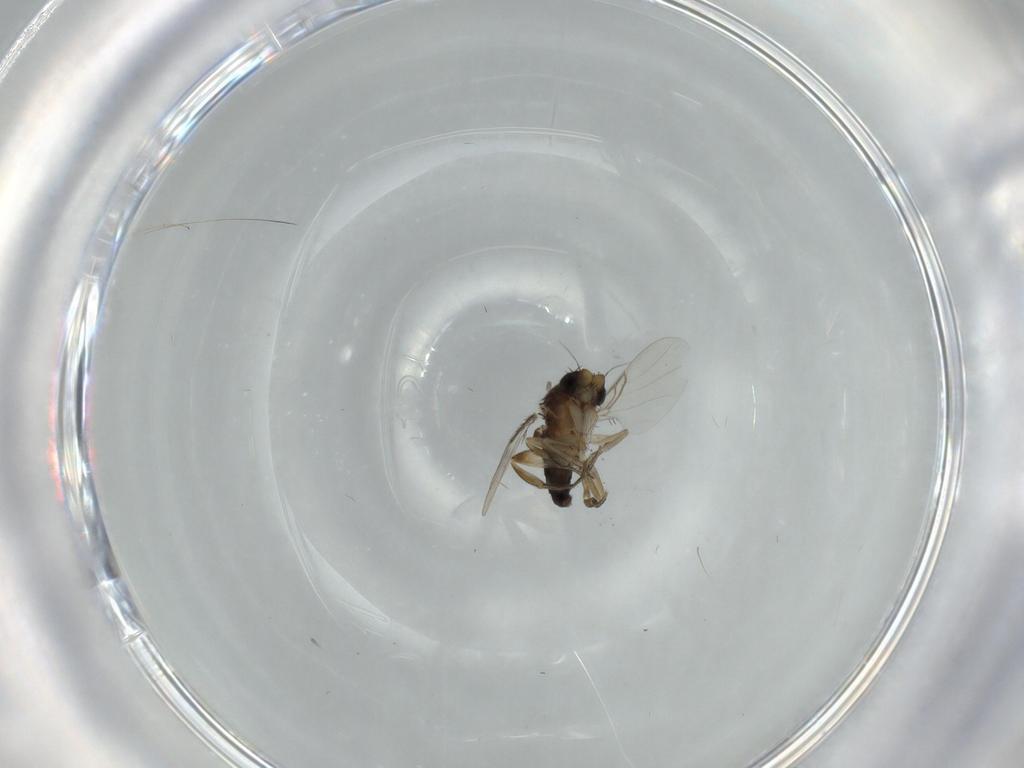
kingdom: Animalia
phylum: Arthropoda
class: Insecta
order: Diptera
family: Phoridae
